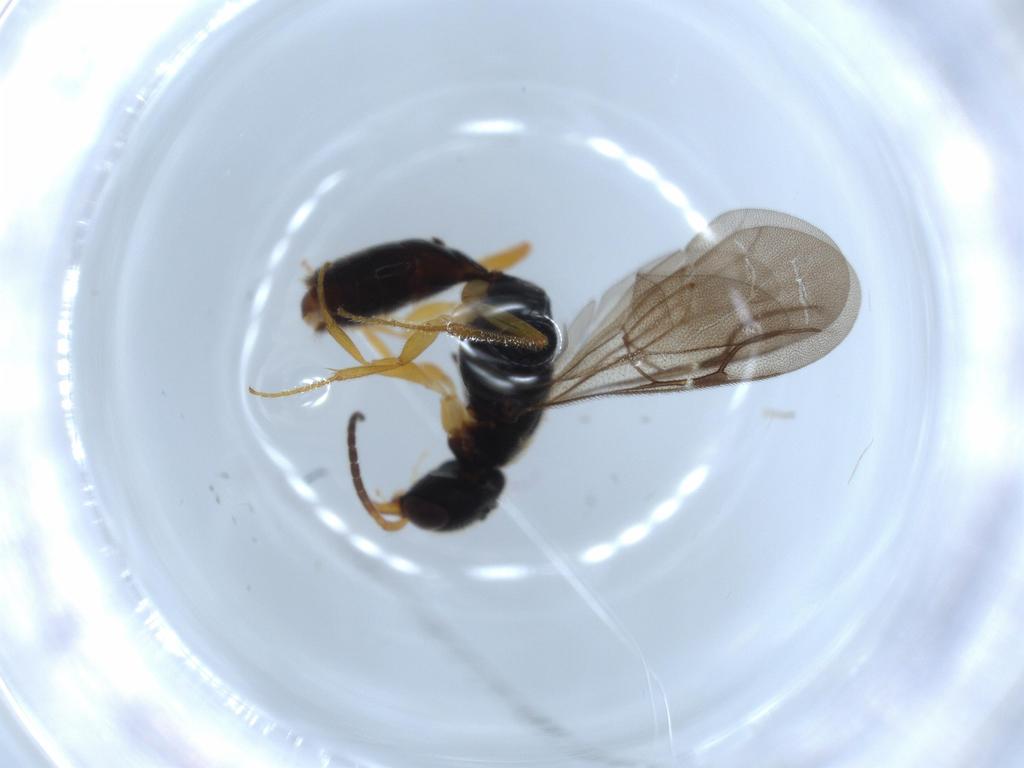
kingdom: Animalia
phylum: Arthropoda
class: Insecta
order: Hymenoptera
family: Bethylidae
